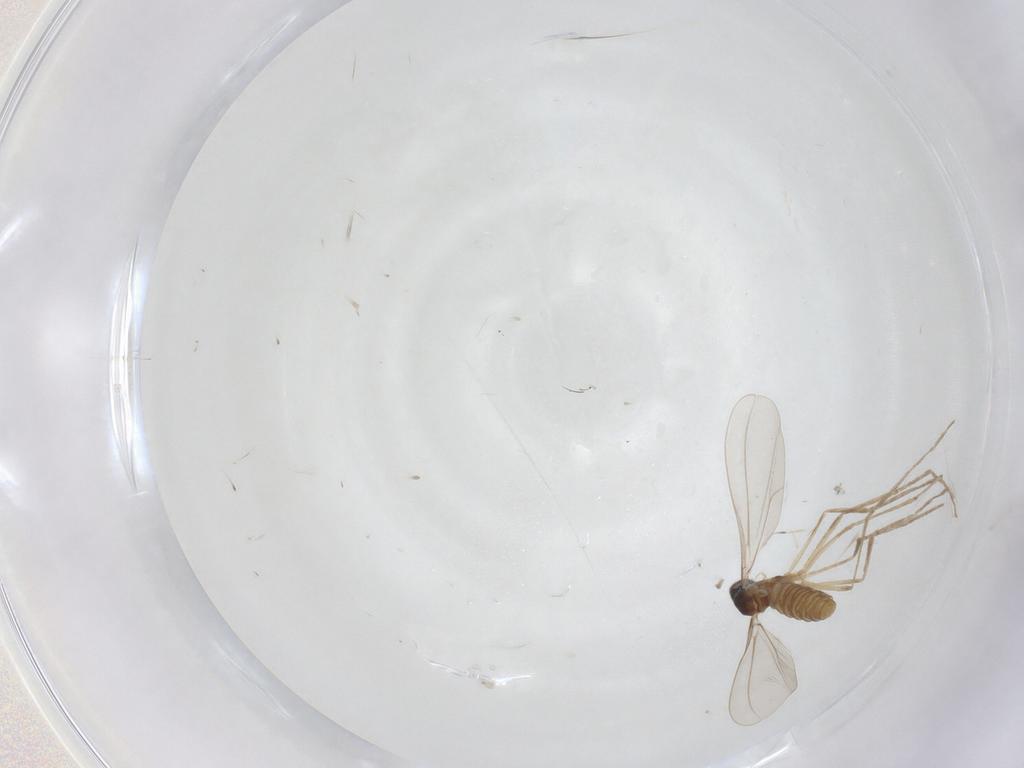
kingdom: Animalia
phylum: Arthropoda
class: Insecta
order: Diptera
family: Cecidomyiidae
